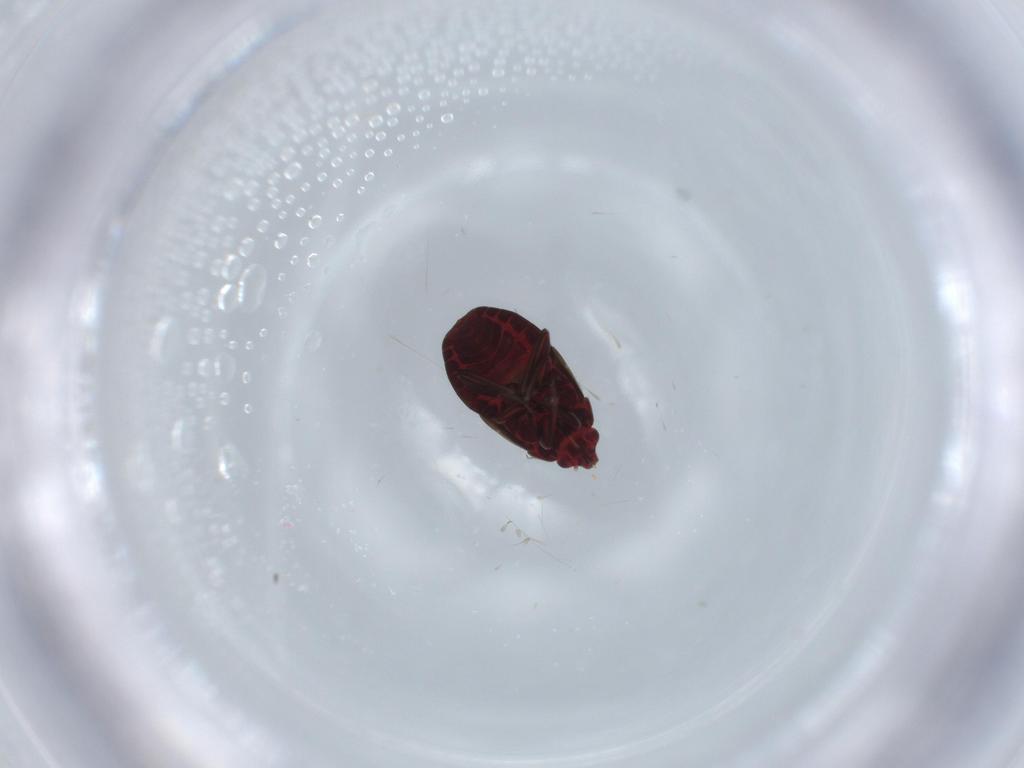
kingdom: Animalia
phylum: Arthropoda
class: Insecta
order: Hemiptera
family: Anthocoridae
